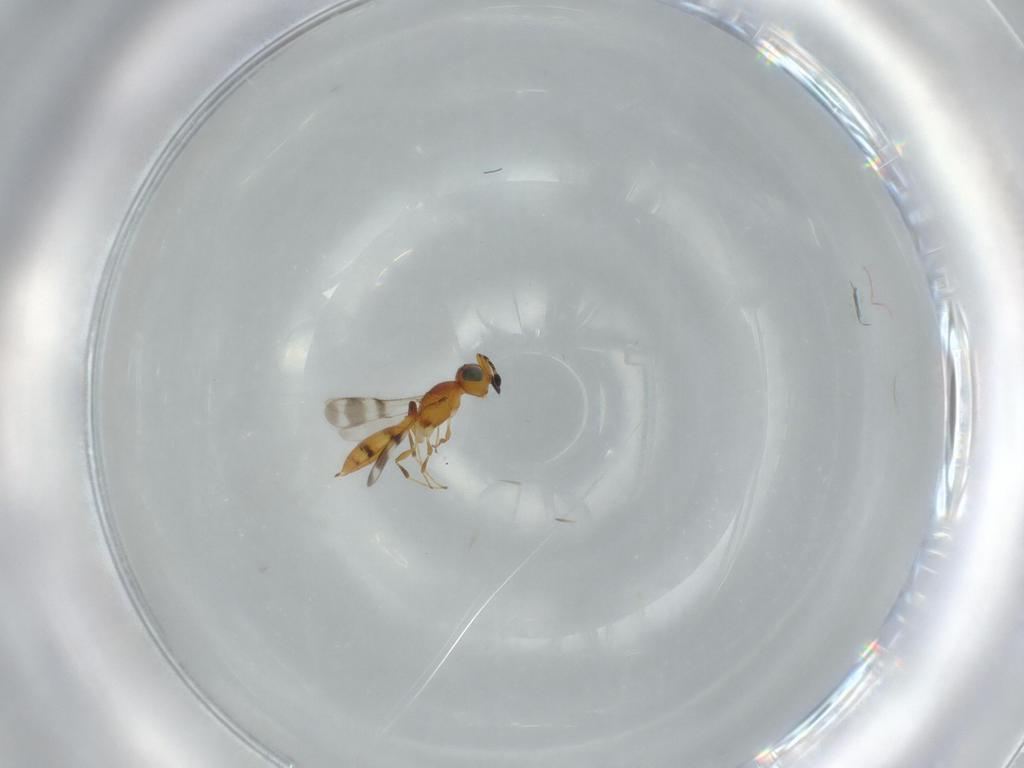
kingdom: Animalia
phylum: Arthropoda
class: Insecta
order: Hymenoptera
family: Scelionidae
